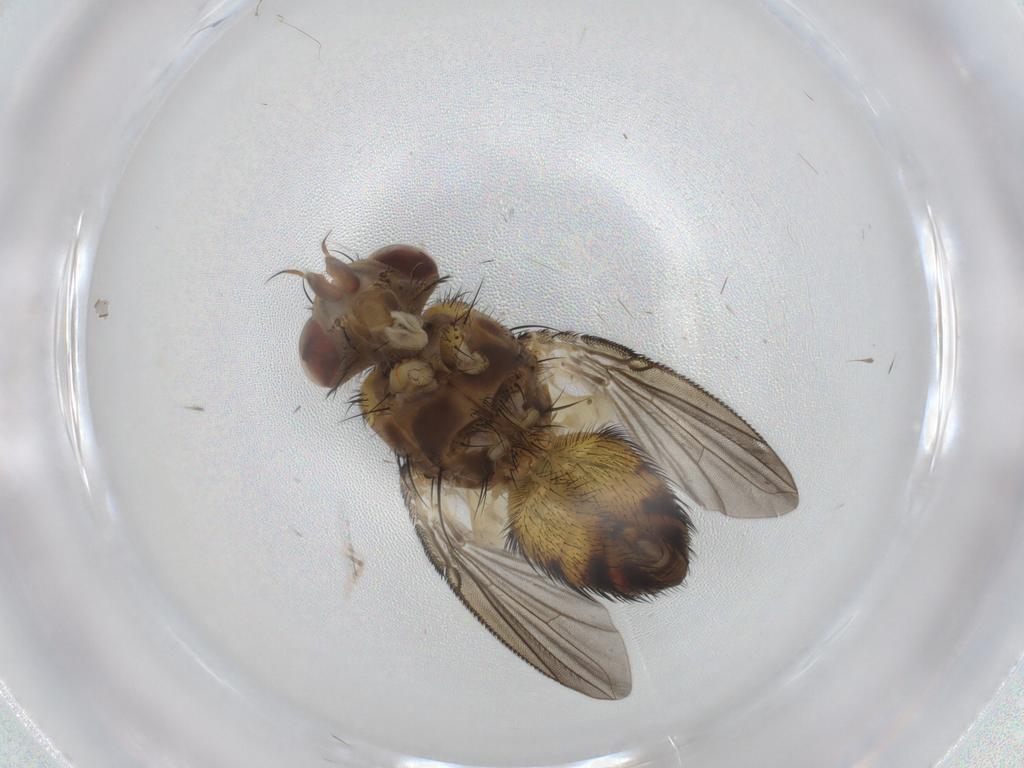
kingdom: Animalia
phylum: Arthropoda
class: Insecta
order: Diptera
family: Tachinidae
